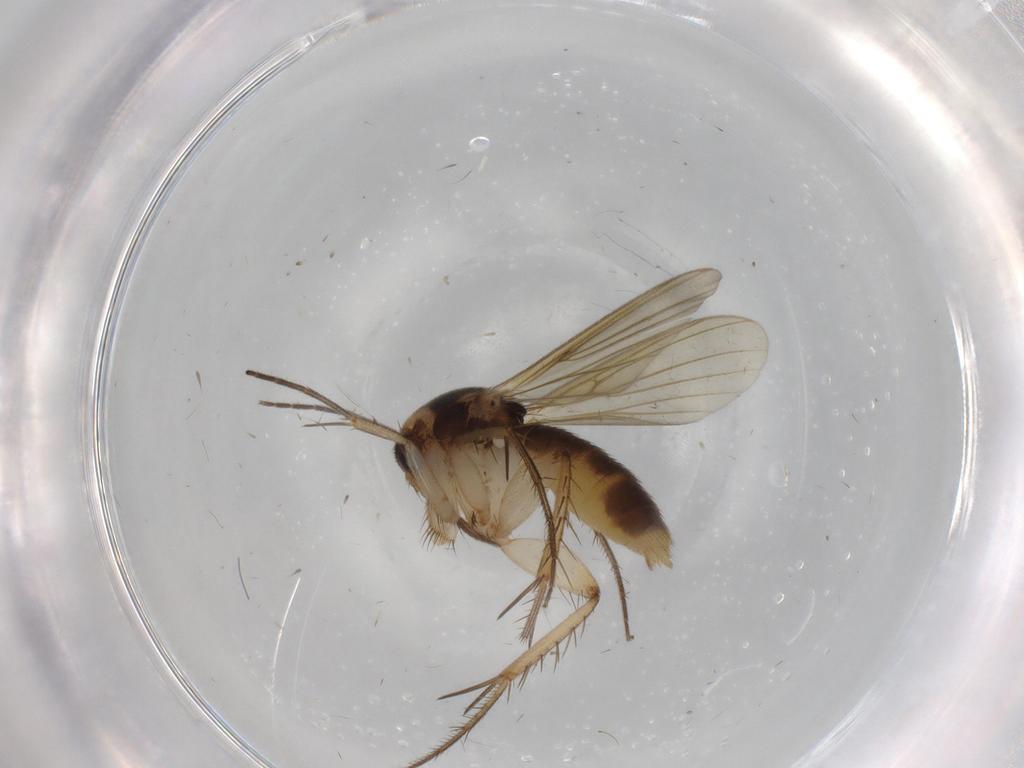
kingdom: Animalia
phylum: Arthropoda
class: Insecta
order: Diptera
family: Mycetophilidae
